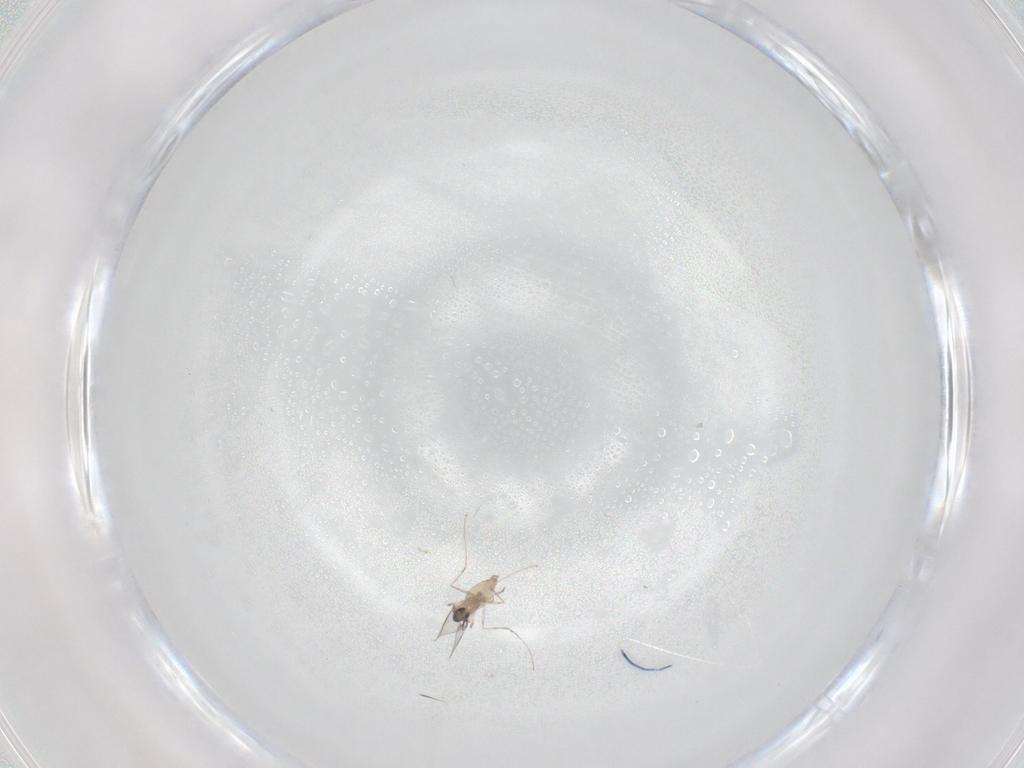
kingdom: Animalia
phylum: Arthropoda
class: Insecta
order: Diptera
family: Cecidomyiidae
